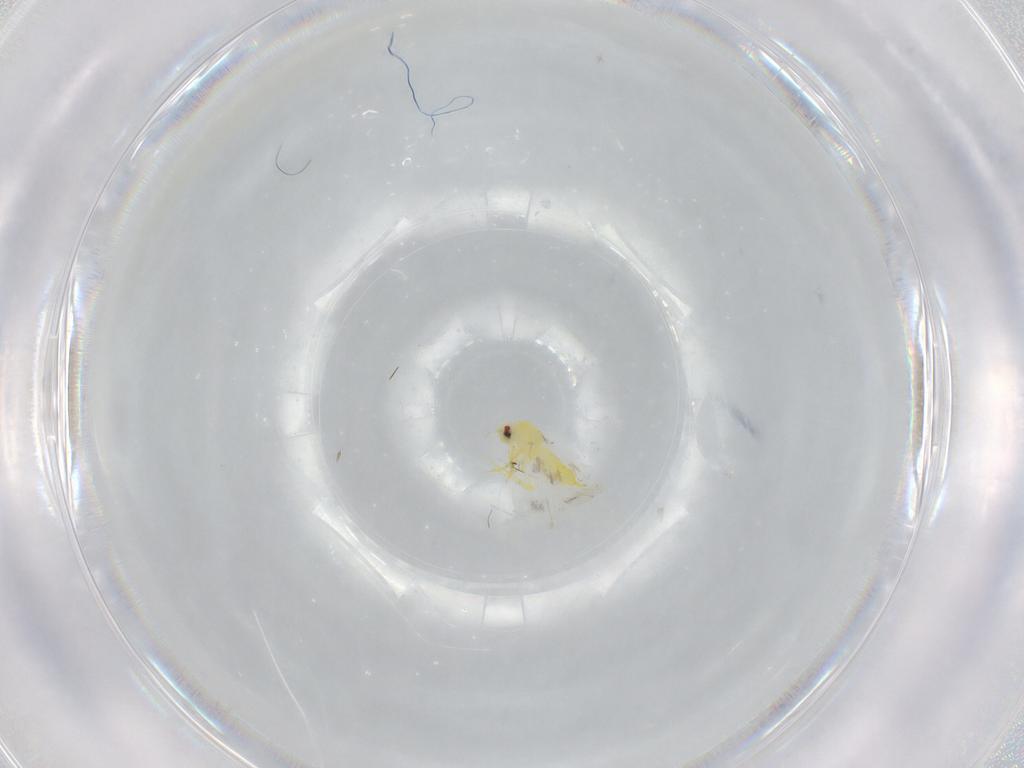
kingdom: Animalia
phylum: Arthropoda
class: Insecta
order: Hemiptera
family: Aleyrodidae
